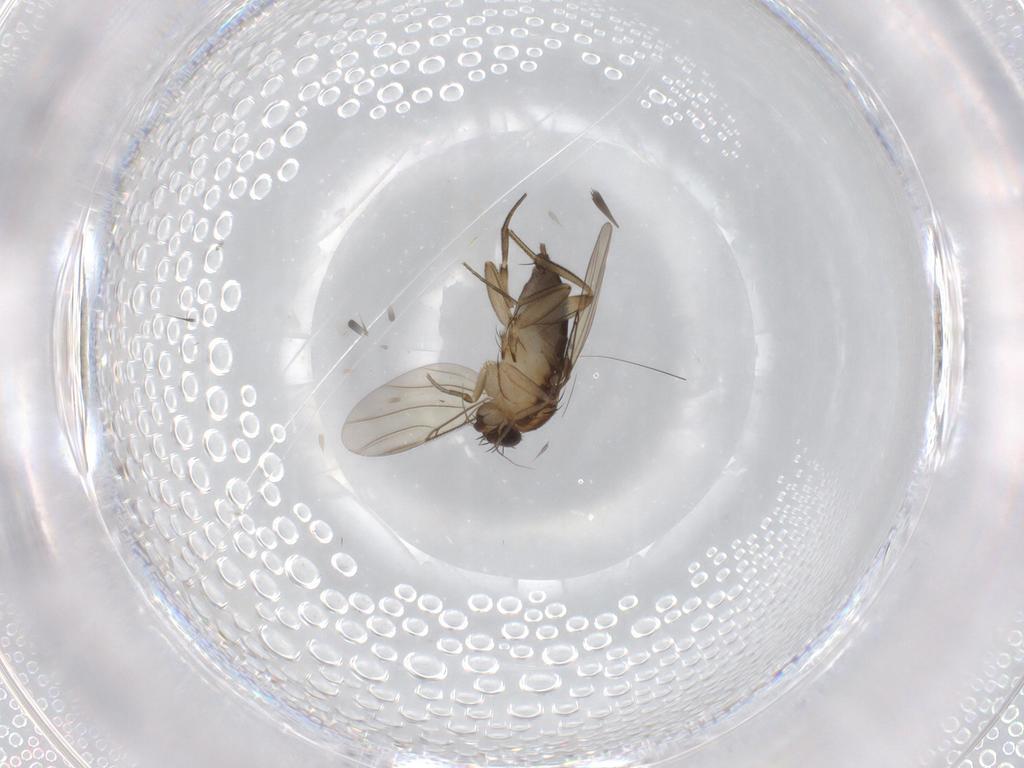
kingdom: Animalia
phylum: Arthropoda
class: Insecta
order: Diptera
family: Phoridae
